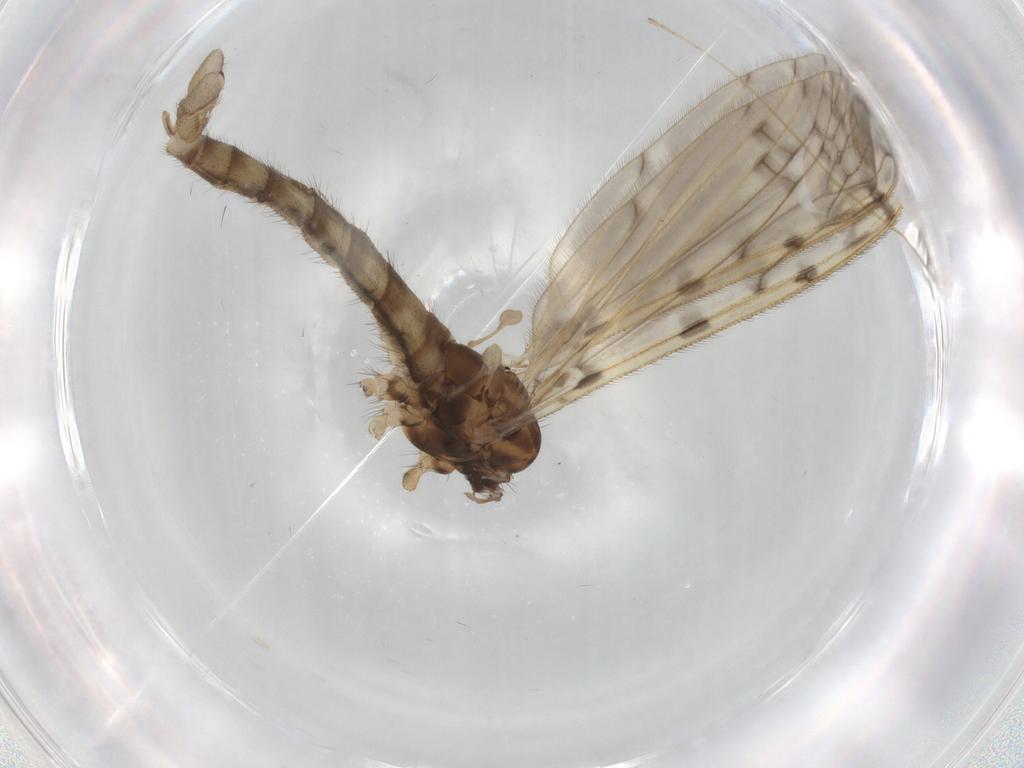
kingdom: Animalia
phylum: Arthropoda
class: Insecta
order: Diptera
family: Limoniidae
